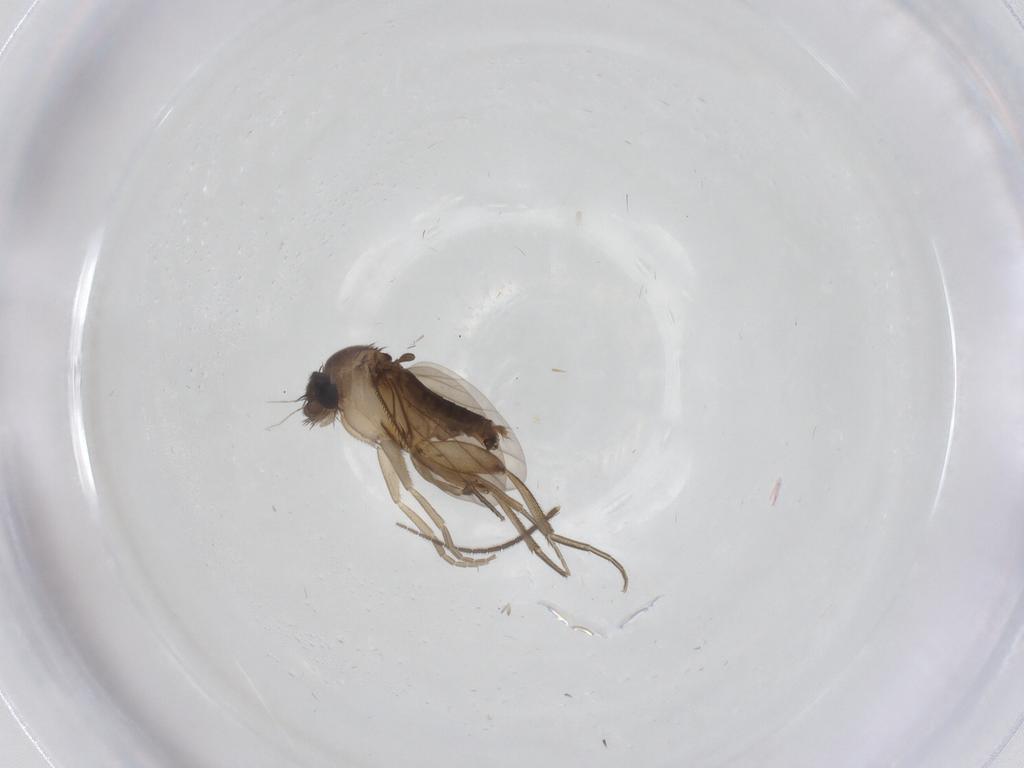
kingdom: Animalia
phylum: Arthropoda
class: Insecta
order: Diptera
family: Phoridae
